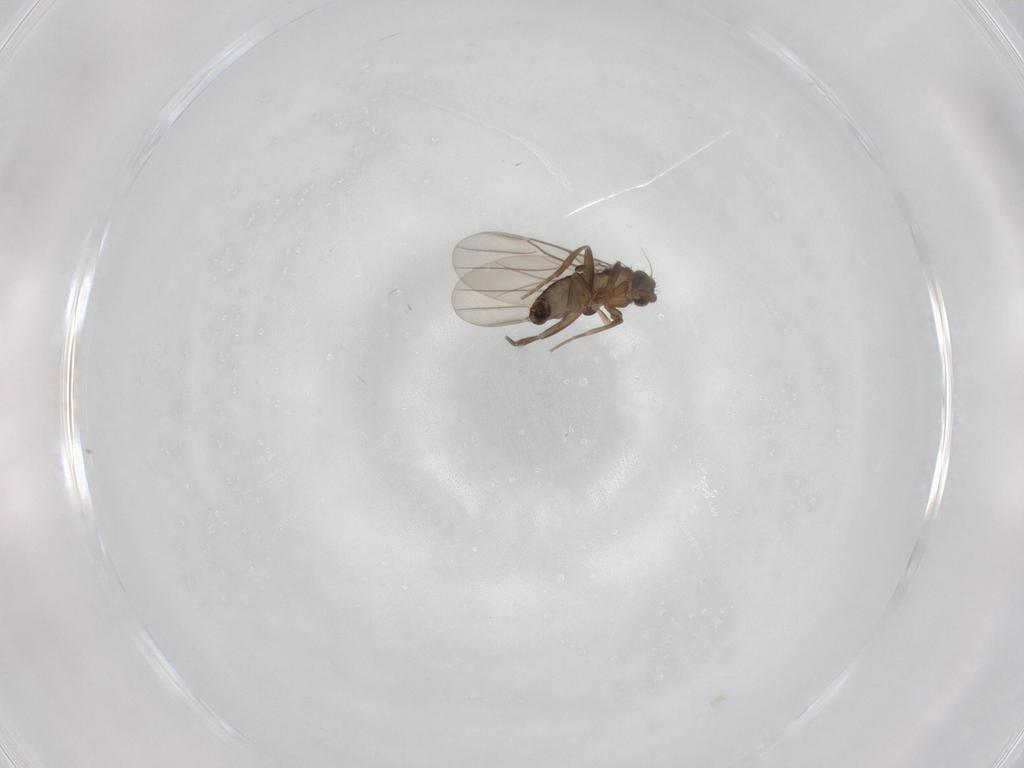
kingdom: Animalia
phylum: Arthropoda
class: Insecta
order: Diptera
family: Phoridae
